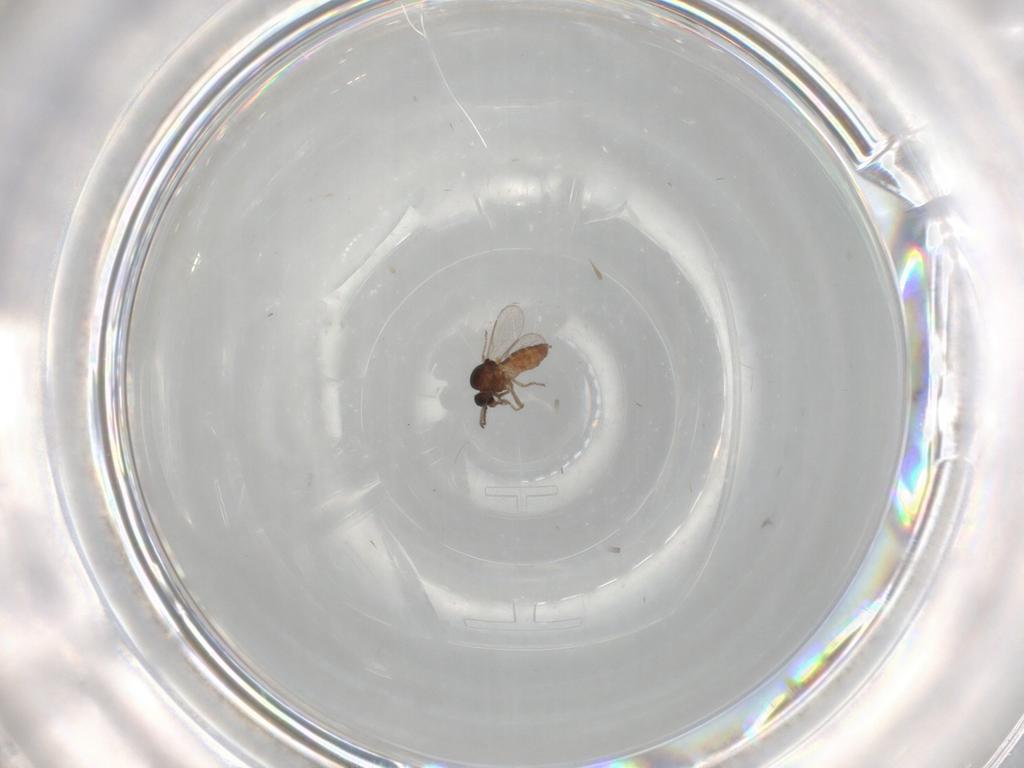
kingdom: Animalia
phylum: Arthropoda
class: Insecta
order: Diptera
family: Ceratopogonidae
